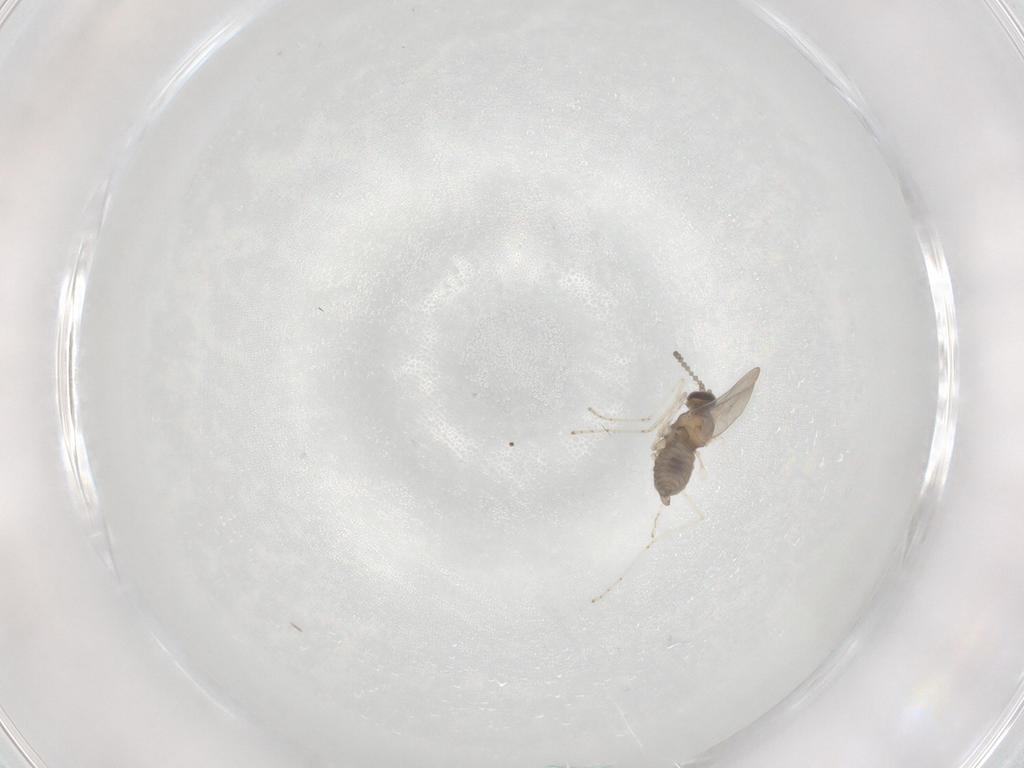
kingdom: Animalia
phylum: Arthropoda
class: Insecta
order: Diptera
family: Cecidomyiidae
